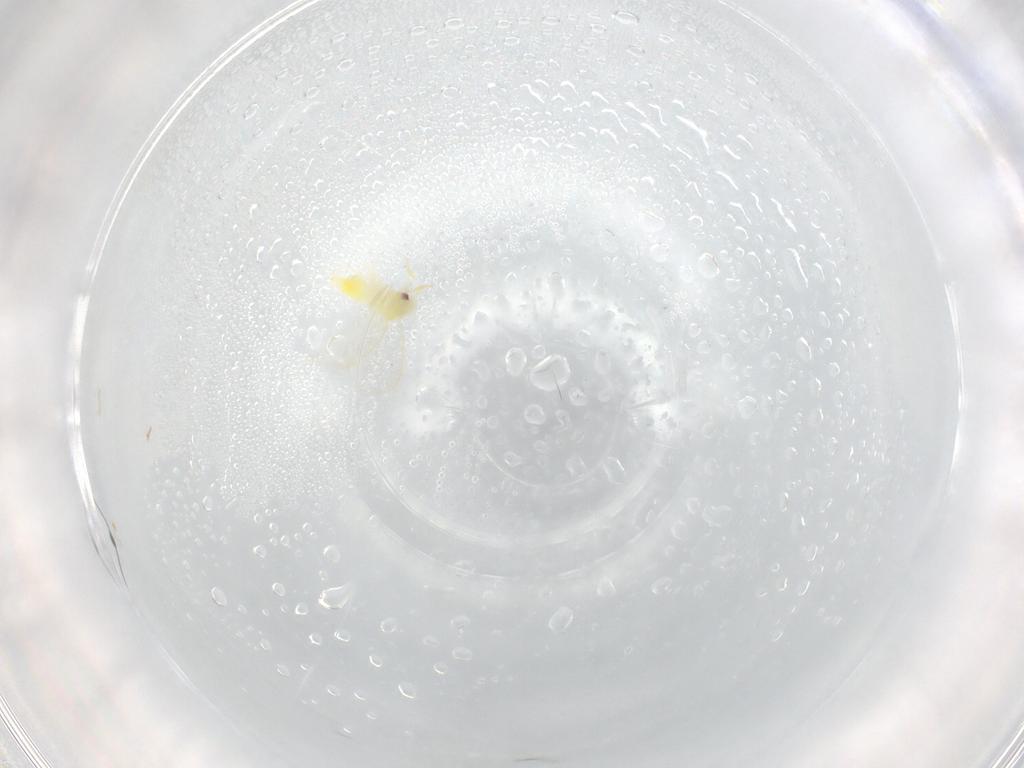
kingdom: Animalia
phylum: Arthropoda
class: Insecta
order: Hemiptera
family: Aleyrodidae
